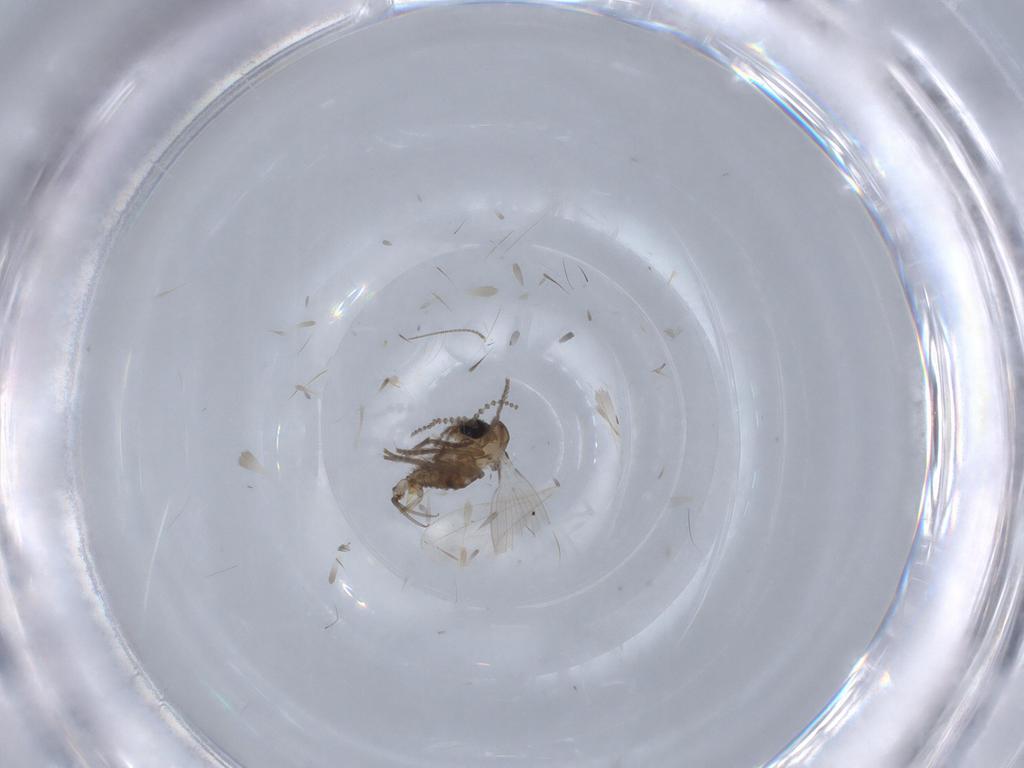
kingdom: Animalia
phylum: Arthropoda
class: Insecta
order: Diptera
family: Psychodidae
